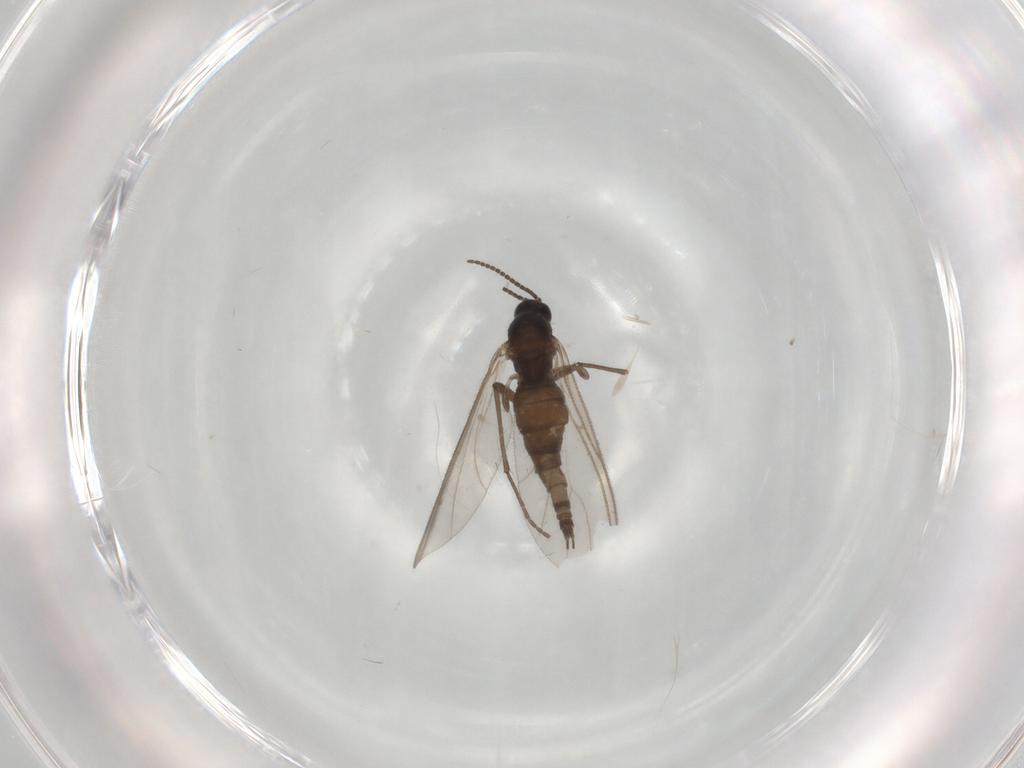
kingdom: Animalia
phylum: Arthropoda
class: Insecta
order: Diptera
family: Sciaridae
